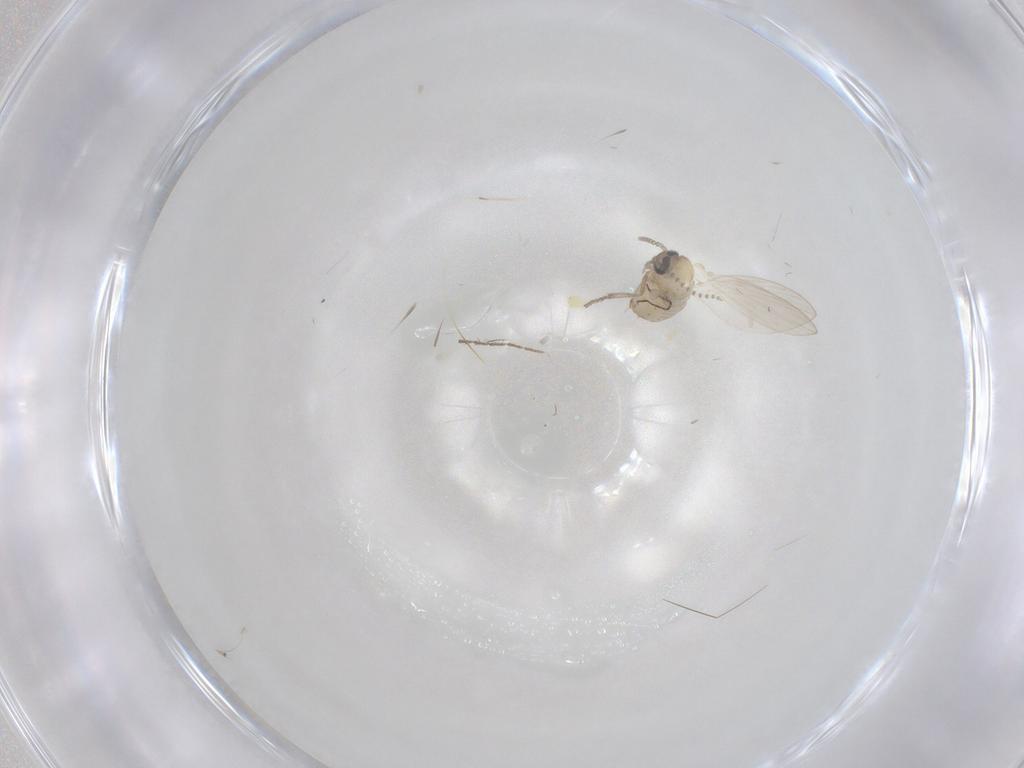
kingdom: Animalia
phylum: Arthropoda
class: Insecta
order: Diptera
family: Psychodidae
